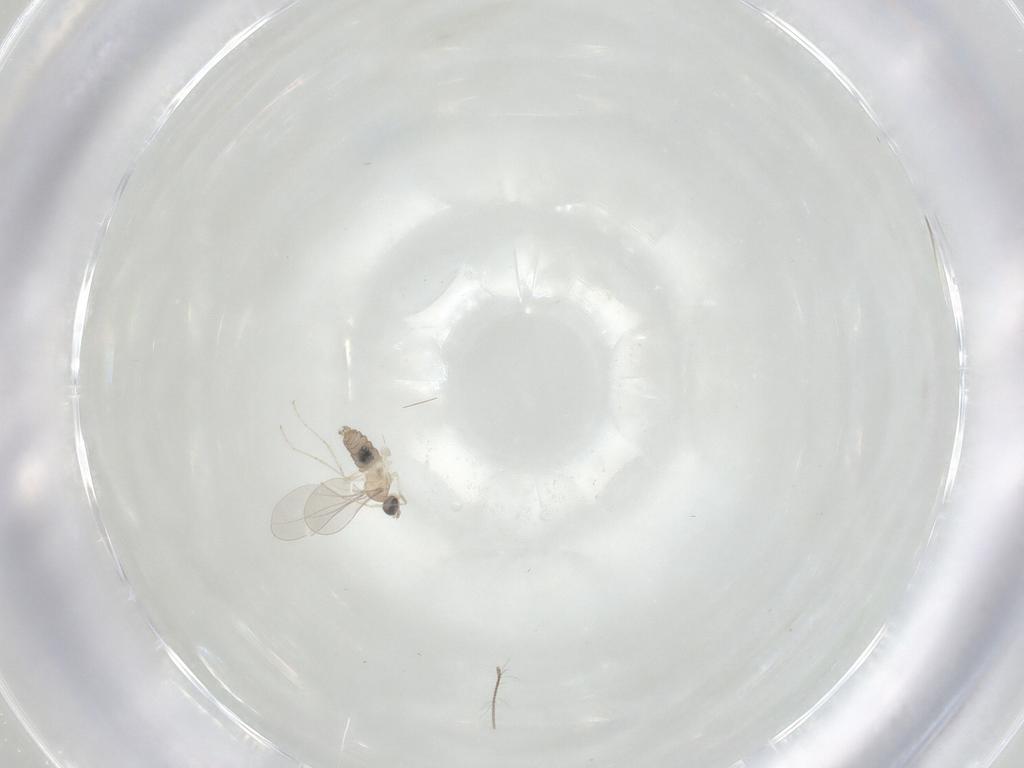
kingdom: Animalia
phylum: Arthropoda
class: Insecta
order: Diptera
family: Cecidomyiidae
